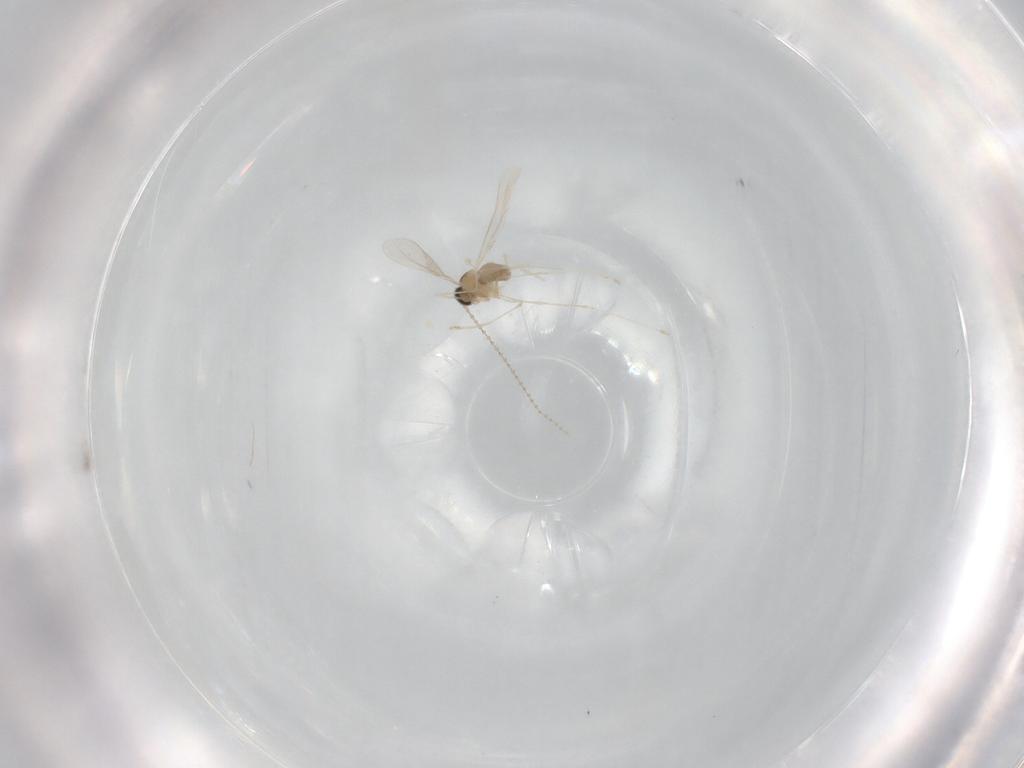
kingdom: Animalia
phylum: Arthropoda
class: Insecta
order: Diptera
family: Cecidomyiidae
